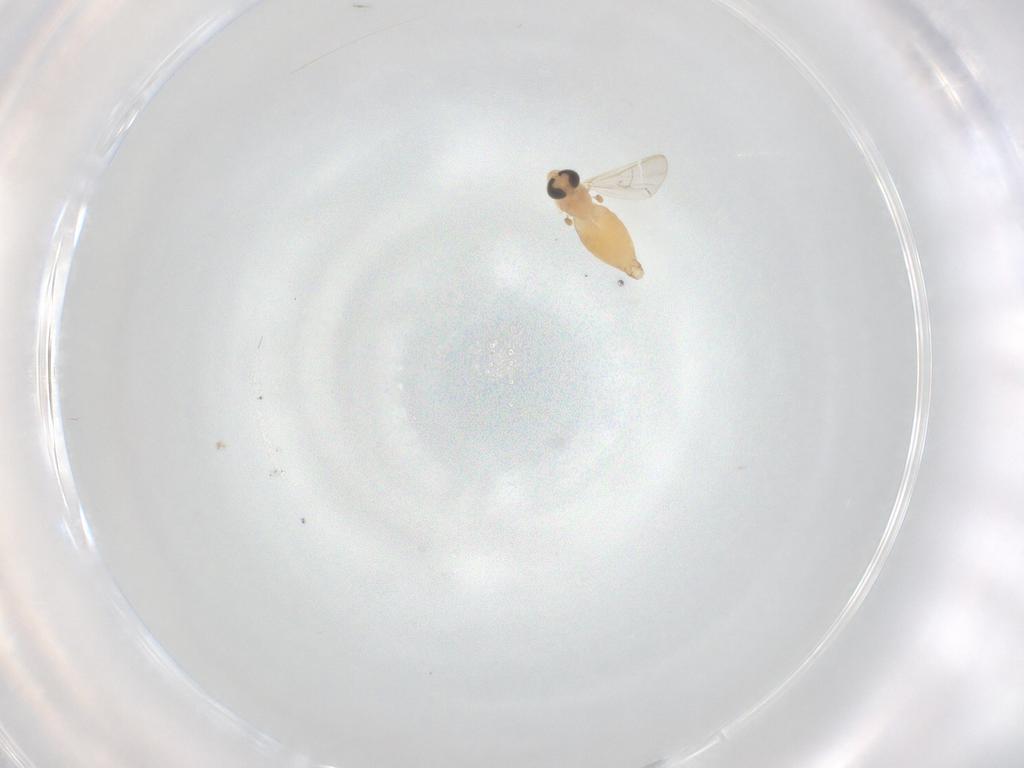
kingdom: Animalia
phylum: Arthropoda
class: Insecta
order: Diptera
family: Chironomidae
